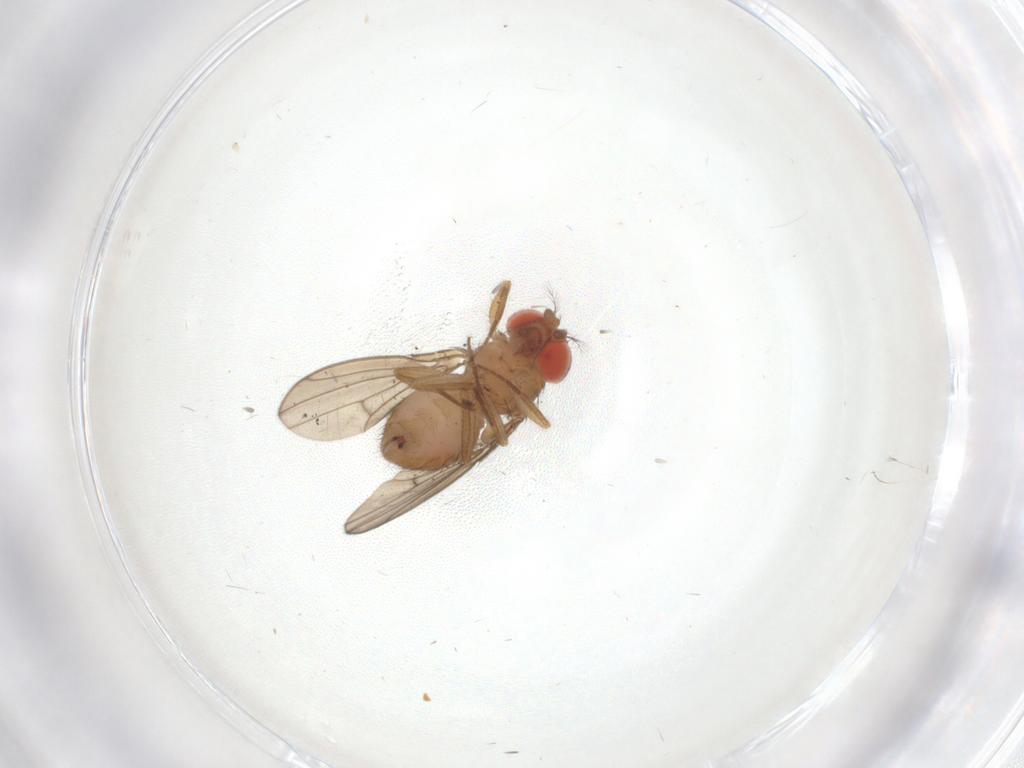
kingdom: Animalia
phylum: Arthropoda
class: Insecta
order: Diptera
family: Drosophilidae
